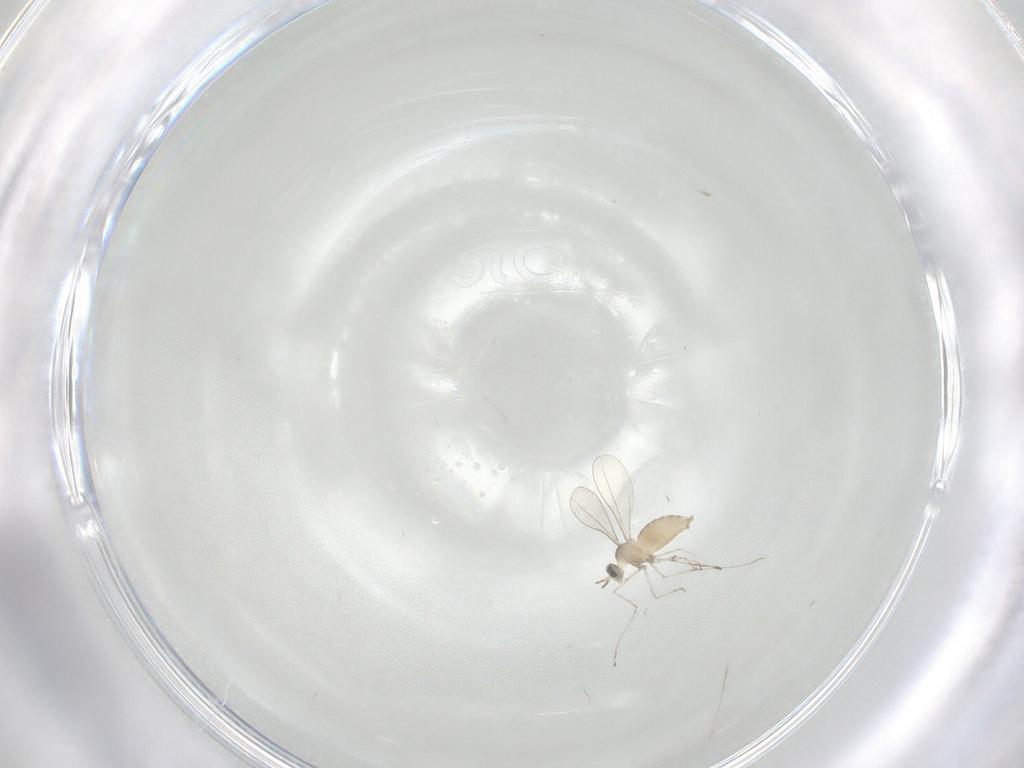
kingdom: Animalia
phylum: Arthropoda
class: Insecta
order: Diptera
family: Cecidomyiidae
